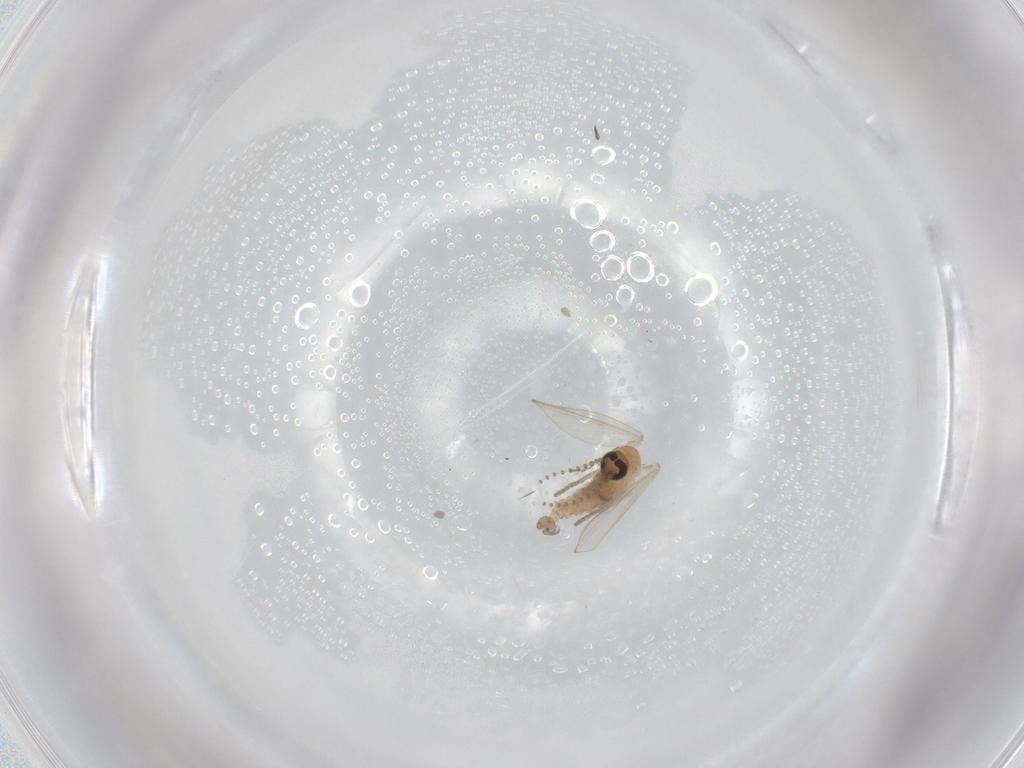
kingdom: Animalia
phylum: Arthropoda
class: Insecta
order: Diptera
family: Psychodidae
